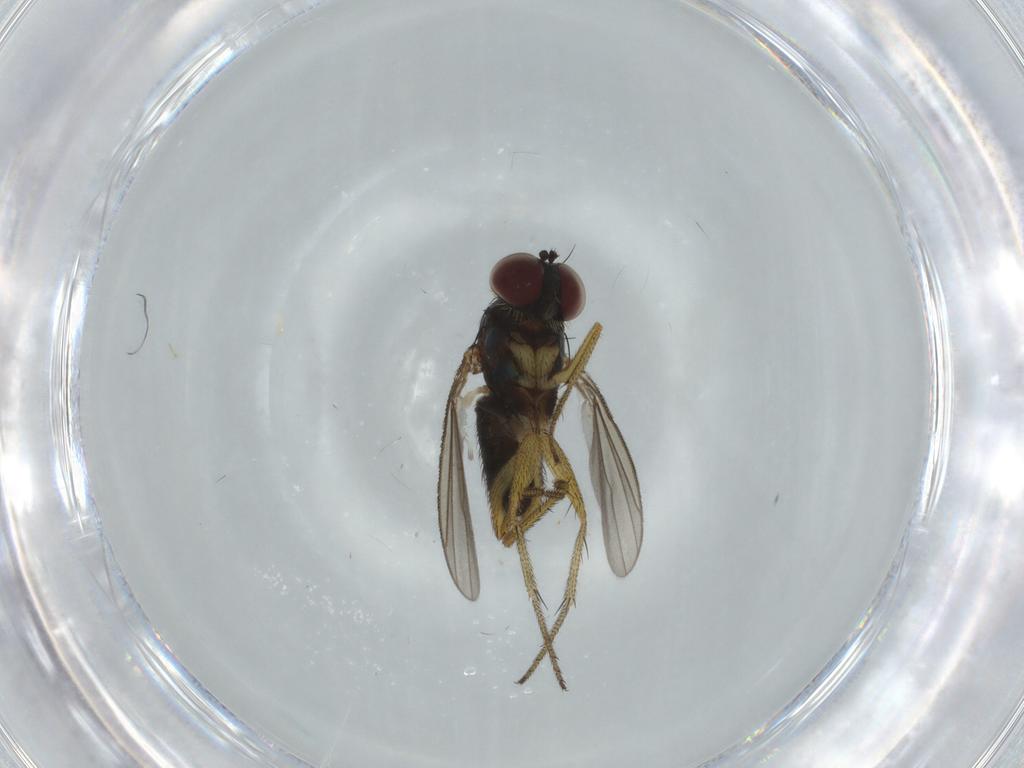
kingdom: Animalia
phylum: Arthropoda
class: Insecta
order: Diptera
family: Dolichopodidae
